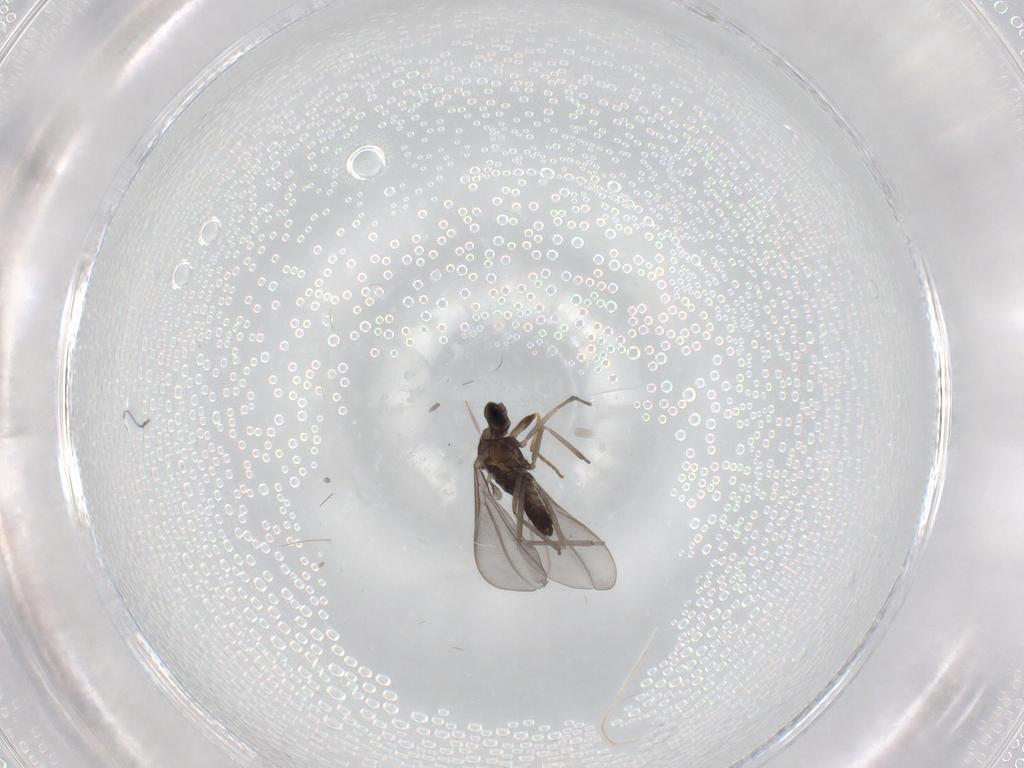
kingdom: Animalia
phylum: Arthropoda
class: Insecta
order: Diptera
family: Scatopsidae
